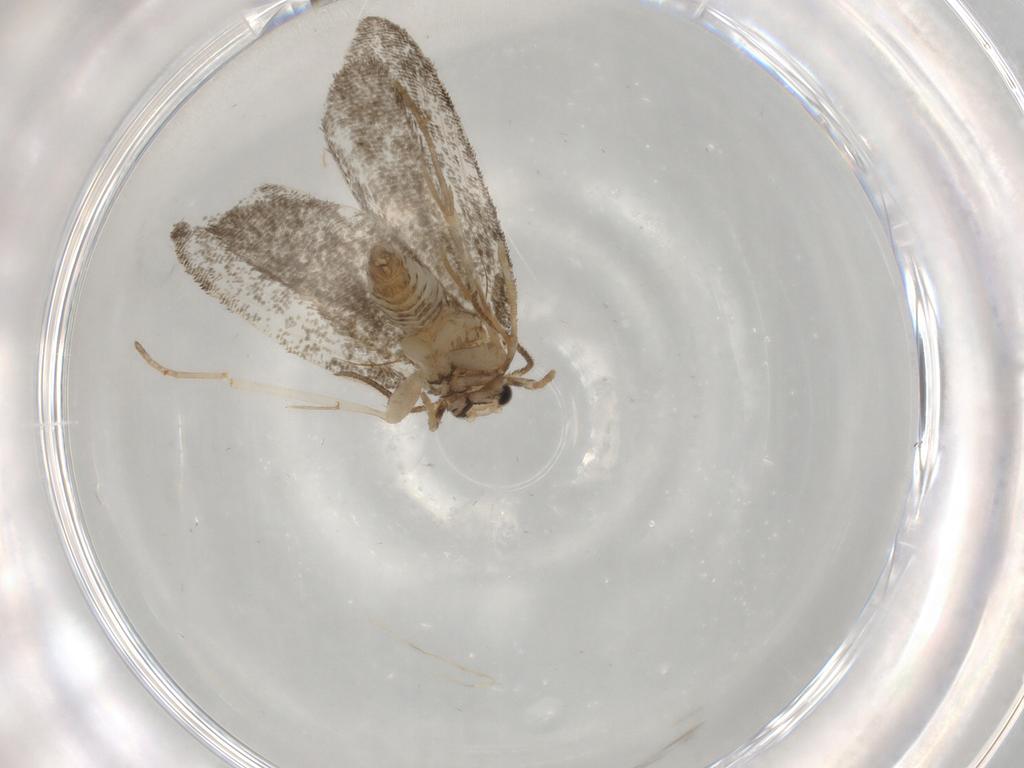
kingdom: Animalia
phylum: Arthropoda
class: Insecta
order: Lepidoptera
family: Psychidae
